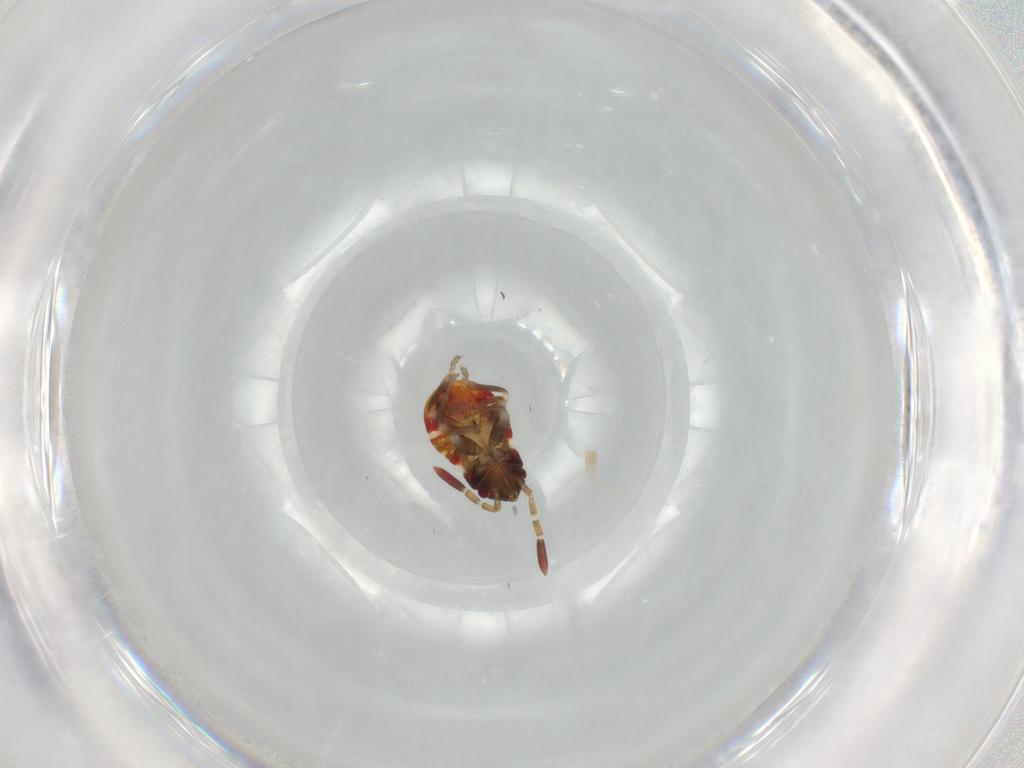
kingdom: Animalia
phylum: Arthropoda
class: Insecta
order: Hemiptera
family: Rhyparochromidae
